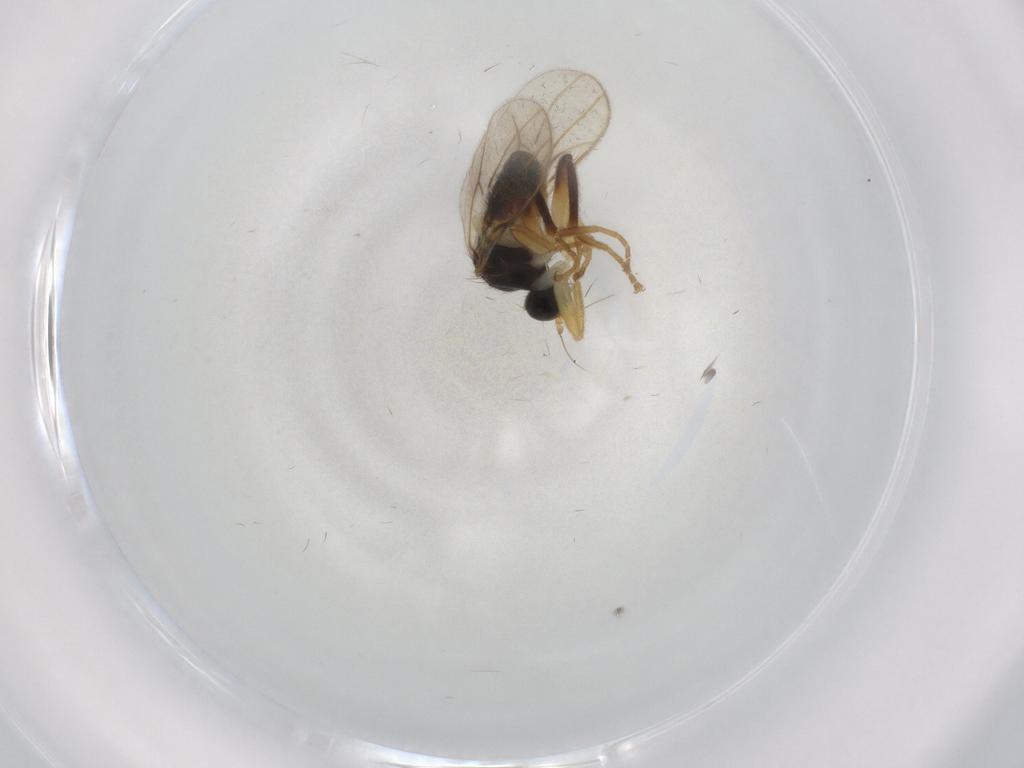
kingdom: Animalia
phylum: Arthropoda
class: Insecta
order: Diptera
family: Hybotidae
